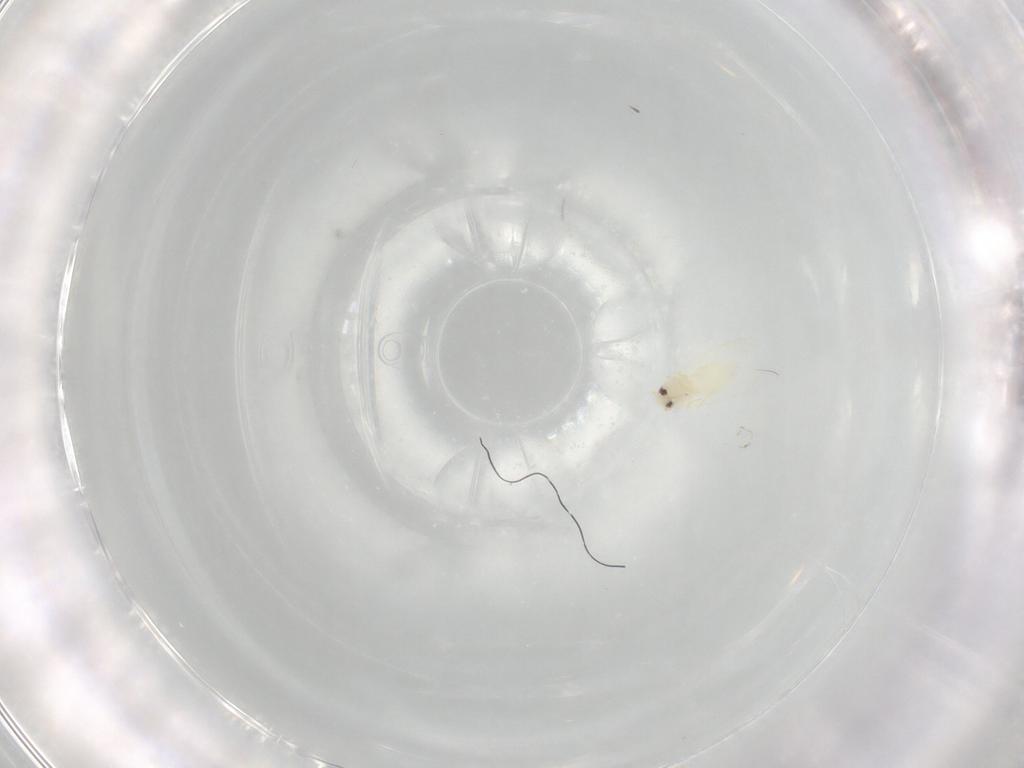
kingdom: Animalia
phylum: Arthropoda
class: Insecta
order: Hemiptera
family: Aleyrodidae
